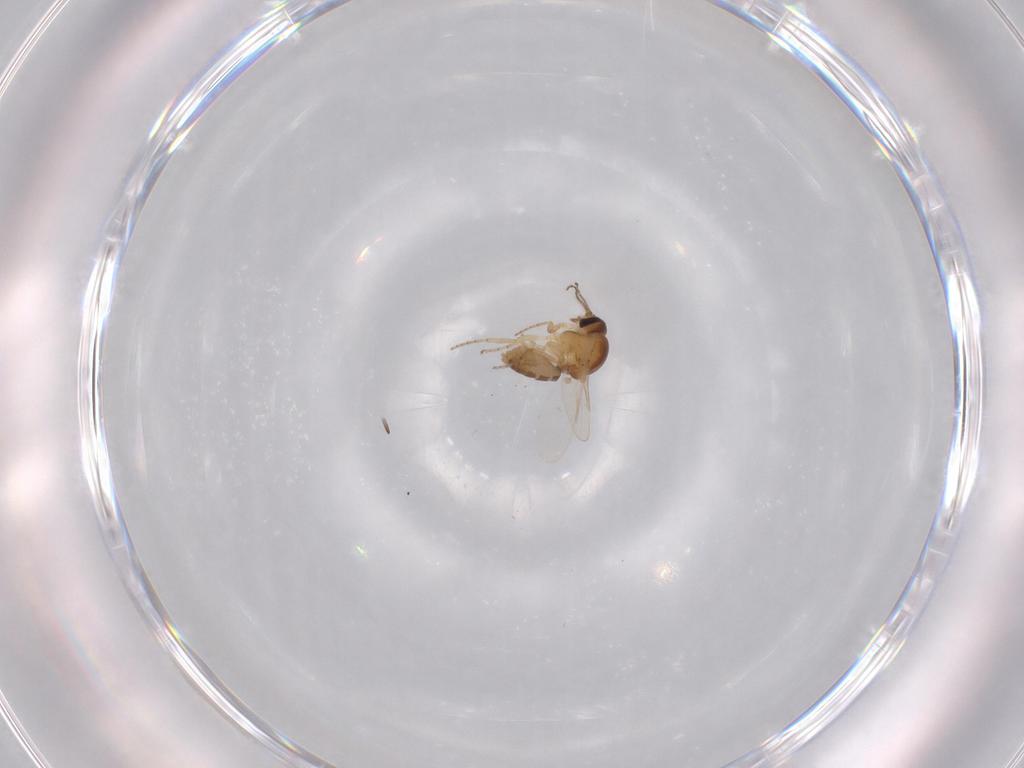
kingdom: Animalia
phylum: Arthropoda
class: Insecta
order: Diptera
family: Ceratopogonidae
